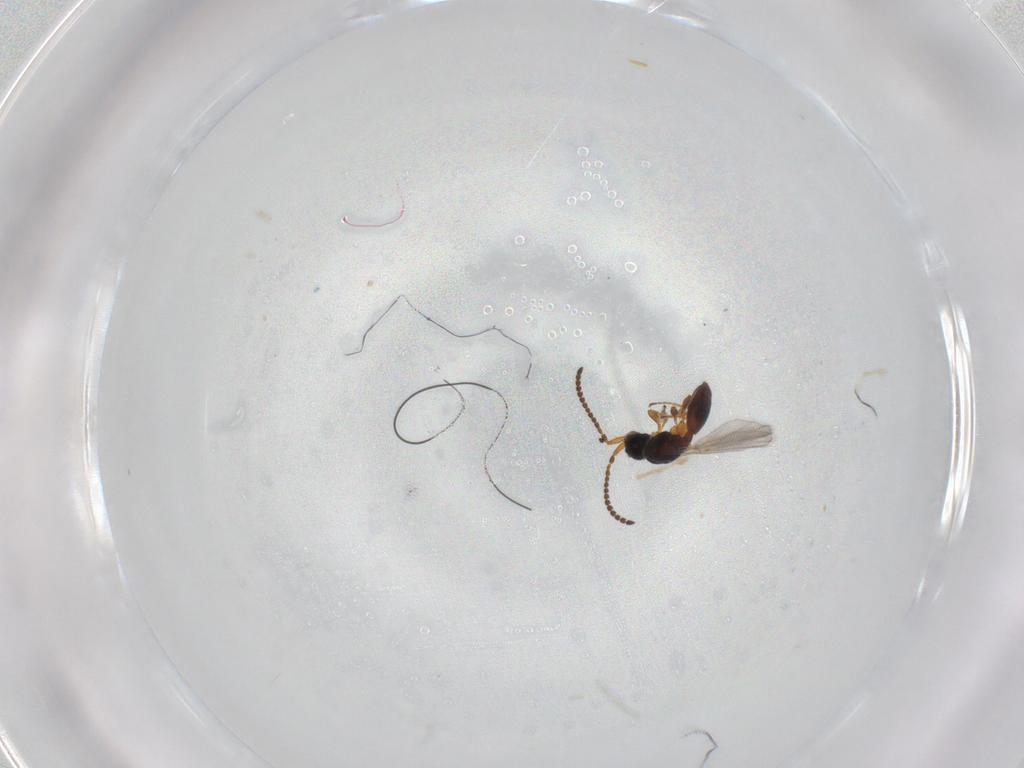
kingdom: Animalia
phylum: Arthropoda
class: Insecta
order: Hymenoptera
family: Diapriidae
